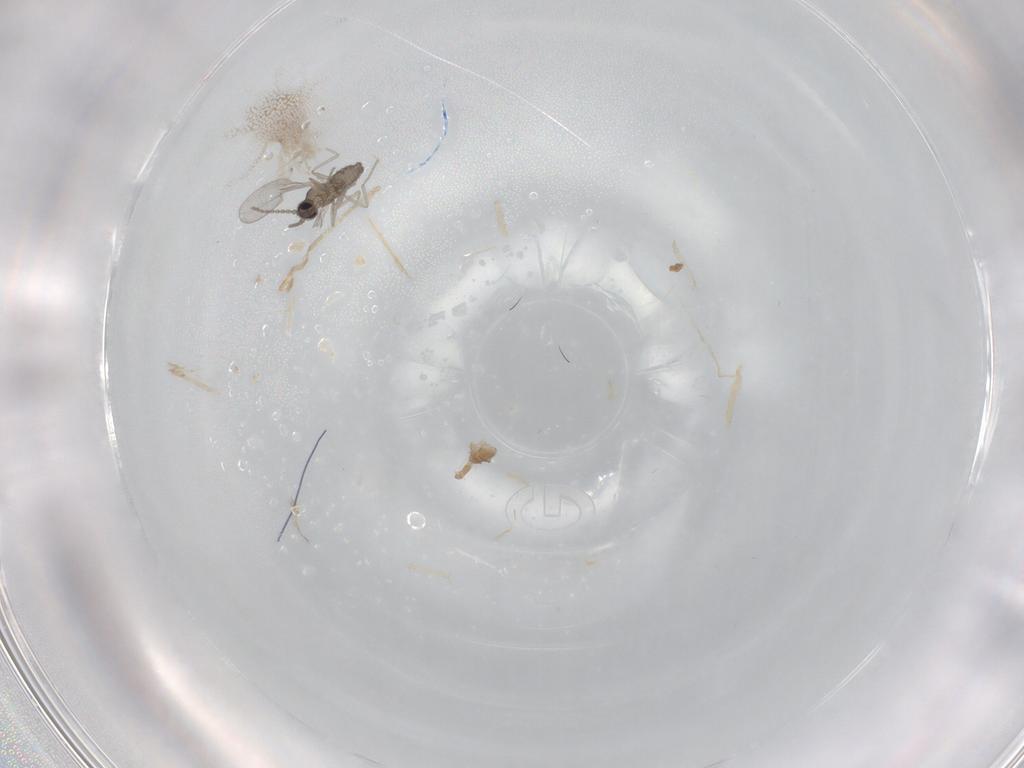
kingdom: Animalia
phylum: Arthropoda
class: Insecta
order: Diptera
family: Cecidomyiidae
